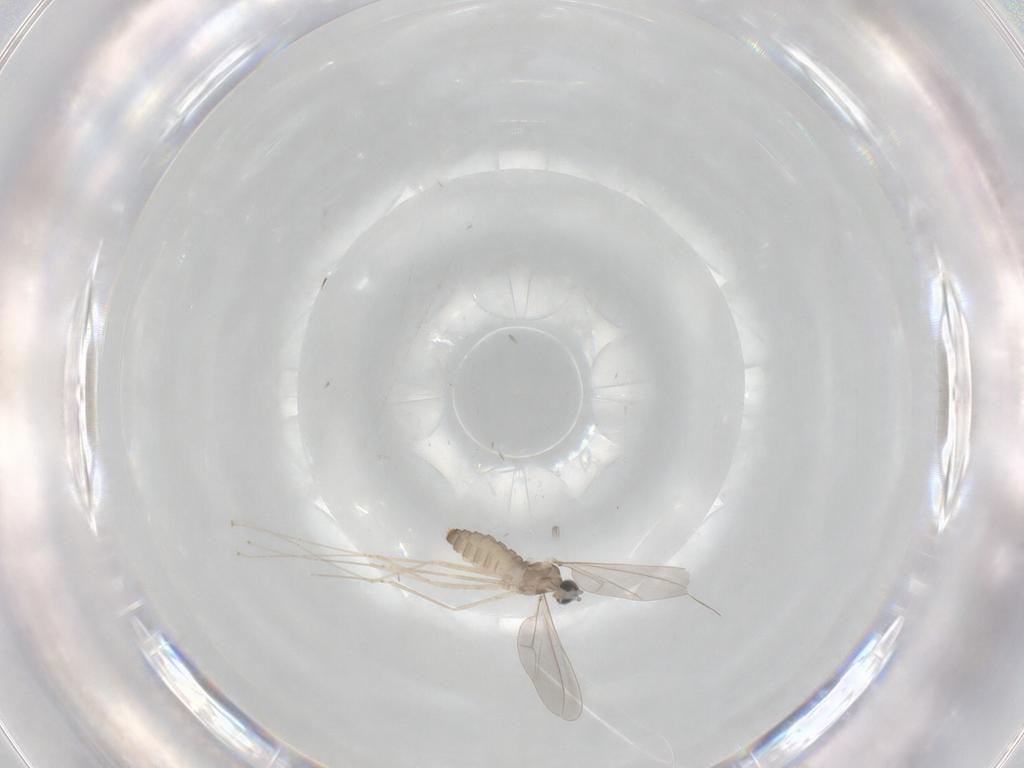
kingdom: Animalia
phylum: Arthropoda
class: Insecta
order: Diptera
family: Cecidomyiidae
